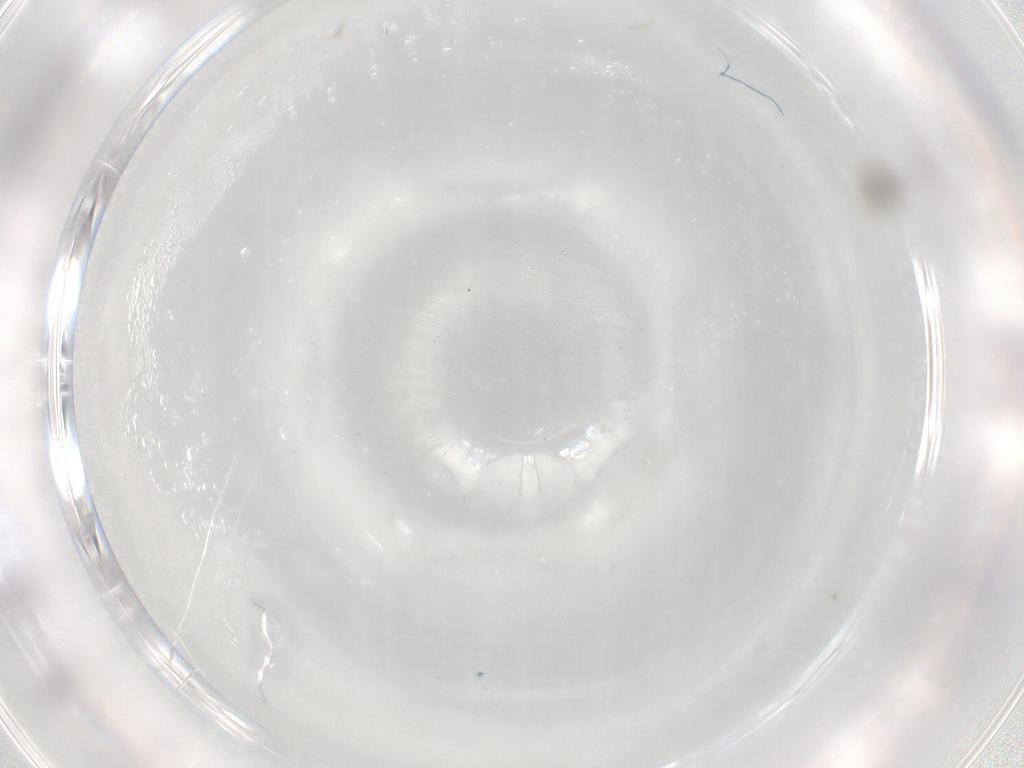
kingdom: Animalia
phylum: Arthropoda
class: Insecta
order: Diptera
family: Cecidomyiidae
